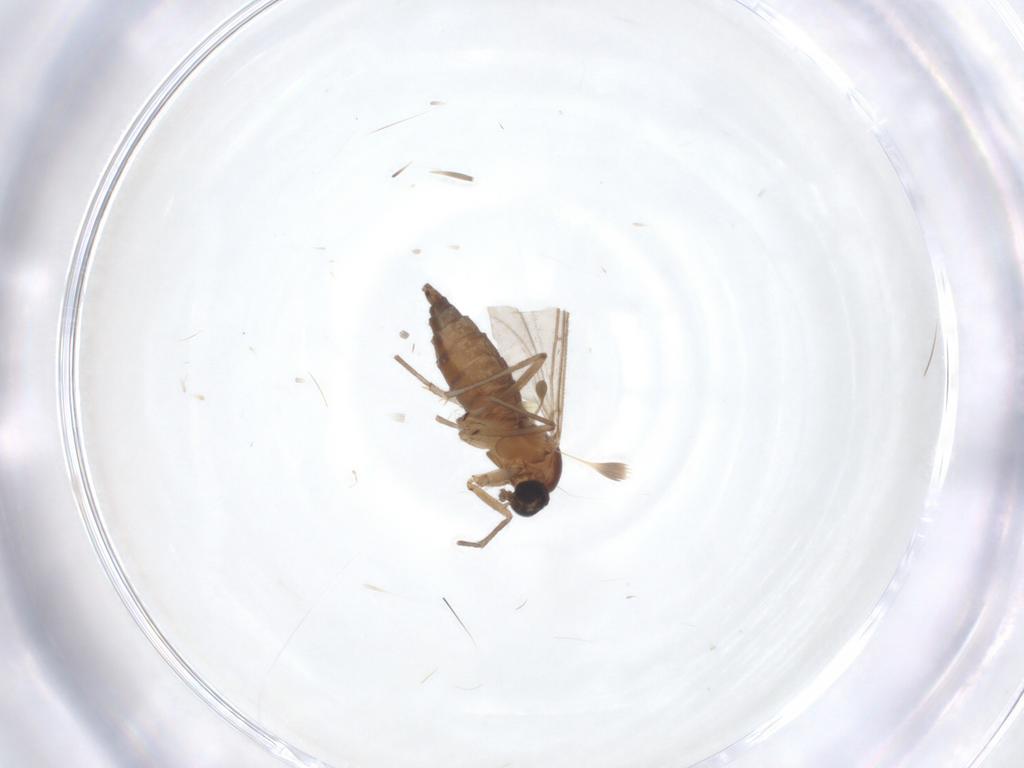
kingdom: Animalia
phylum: Arthropoda
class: Insecta
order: Diptera
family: Sciaridae
